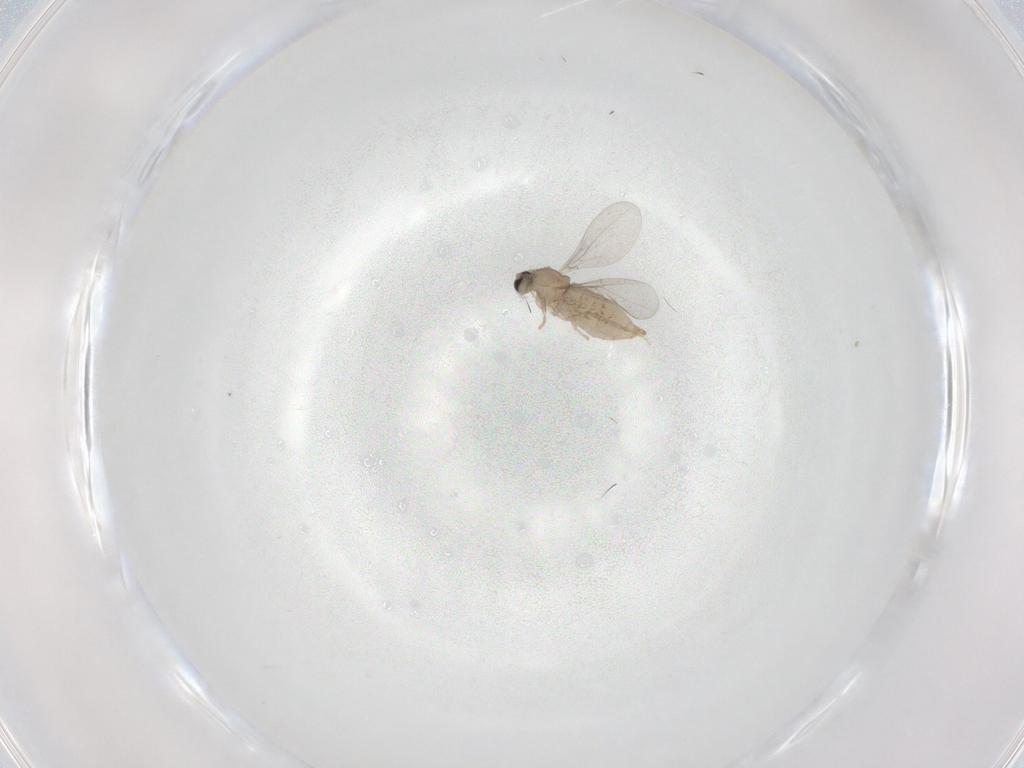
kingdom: Animalia
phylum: Arthropoda
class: Insecta
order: Diptera
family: Cecidomyiidae
